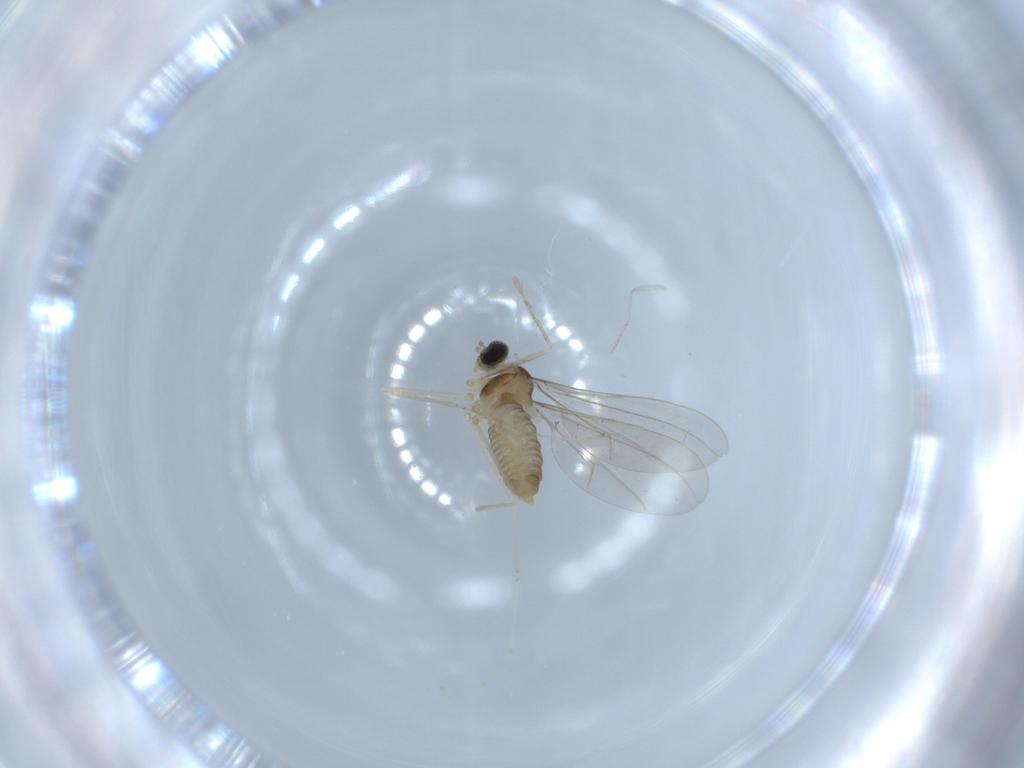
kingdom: Animalia
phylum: Arthropoda
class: Insecta
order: Diptera
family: Cecidomyiidae
